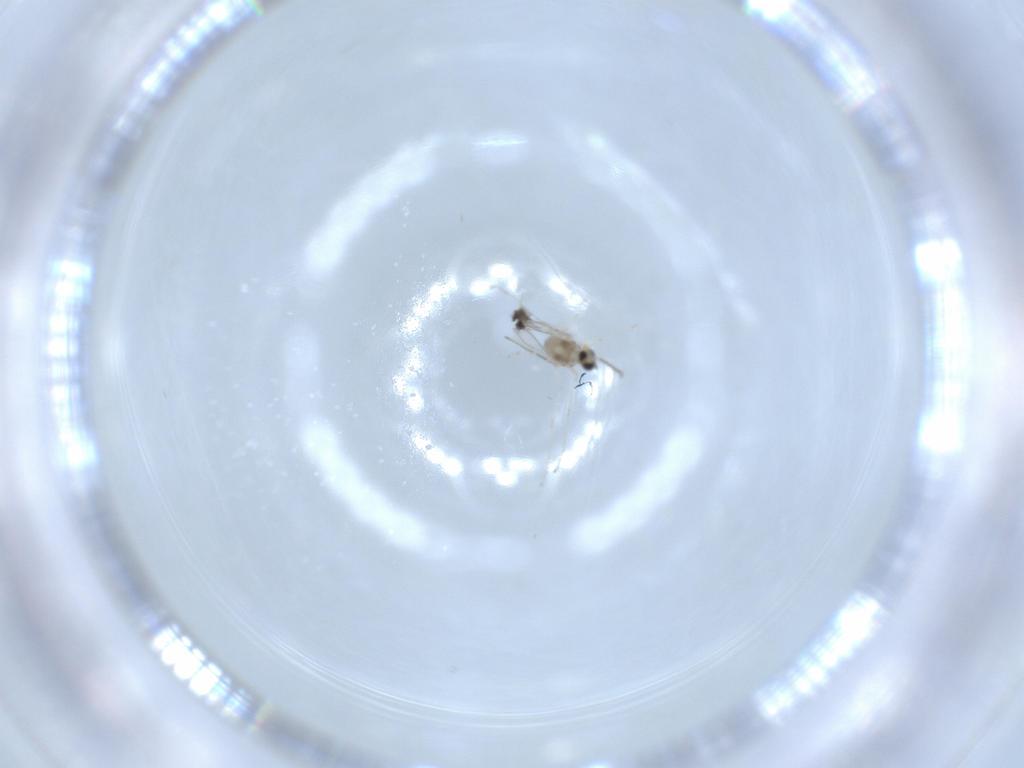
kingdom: Animalia
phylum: Arthropoda
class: Insecta
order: Diptera
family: Cecidomyiidae
